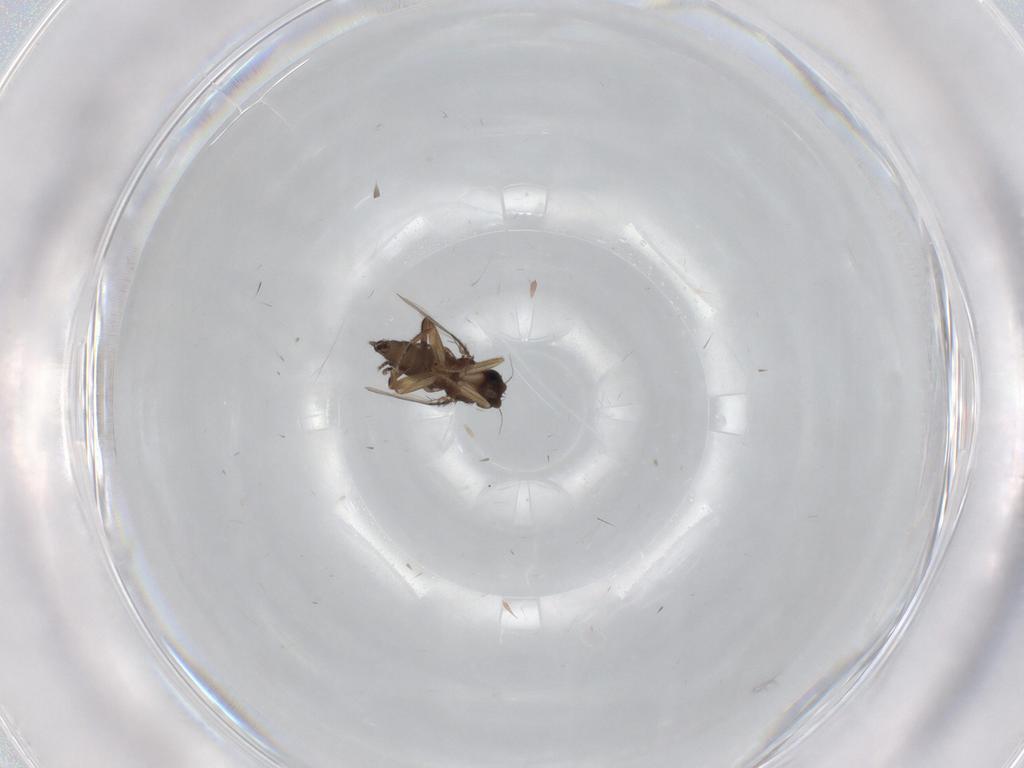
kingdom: Animalia
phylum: Arthropoda
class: Insecta
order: Diptera
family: Phoridae
